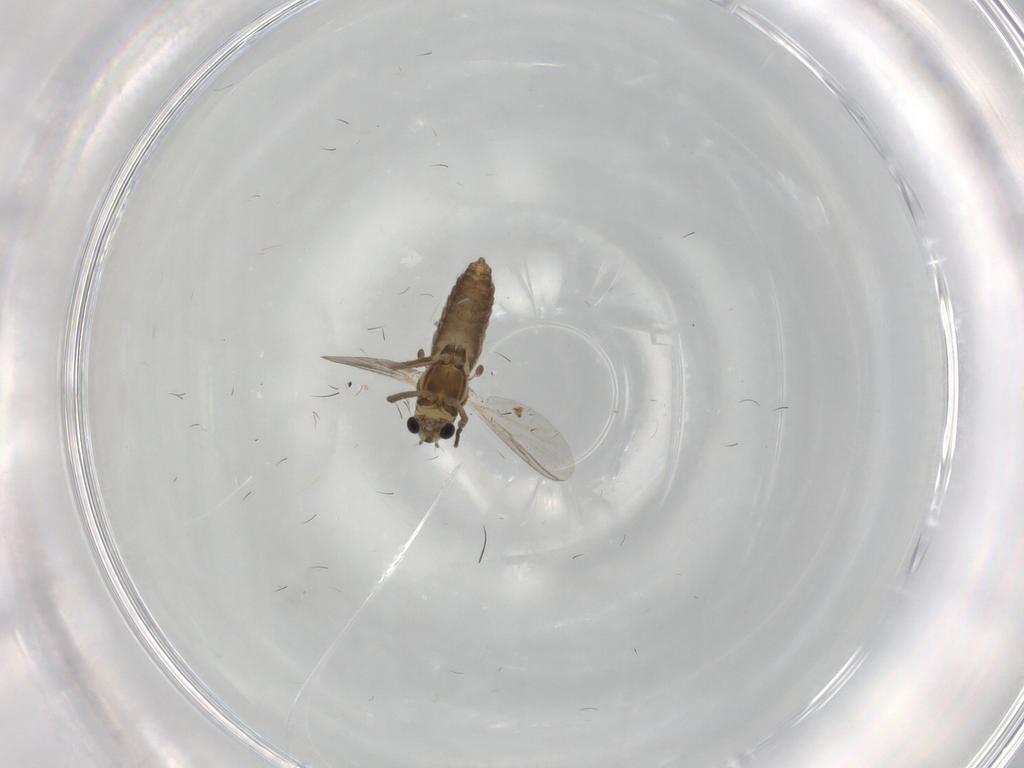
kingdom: Animalia
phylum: Arthropoda
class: Insecta
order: Diptera
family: Chironomidae
